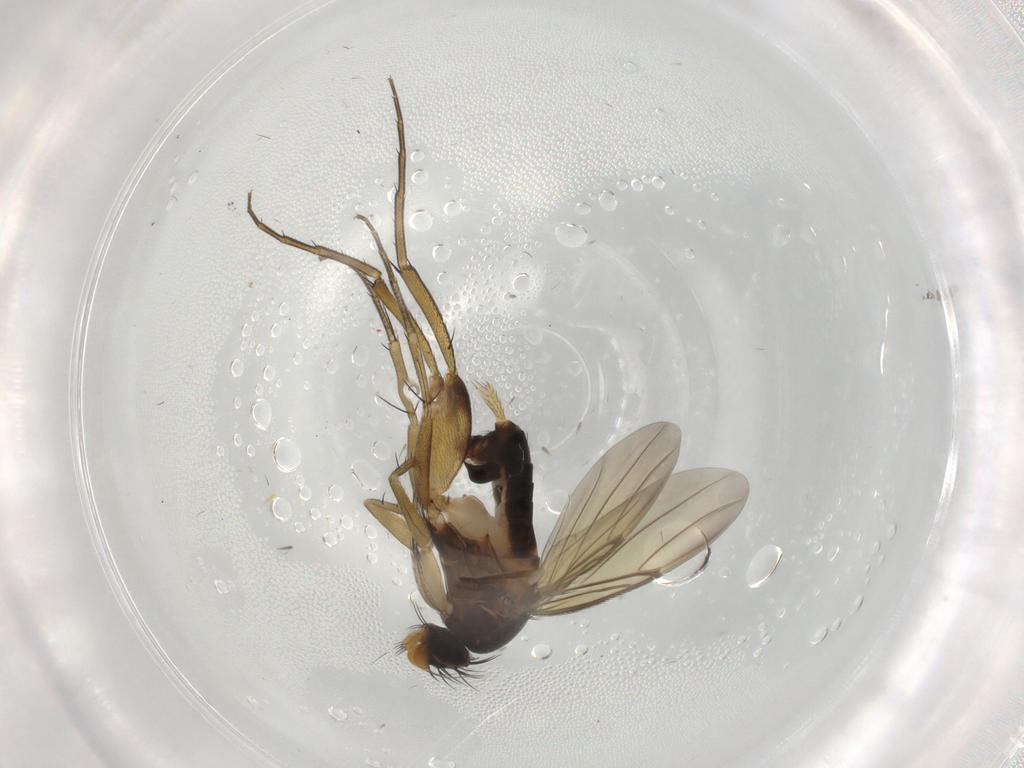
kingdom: Animalia
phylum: Arthropoda
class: Insecta
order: Diptera
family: Phoridae
